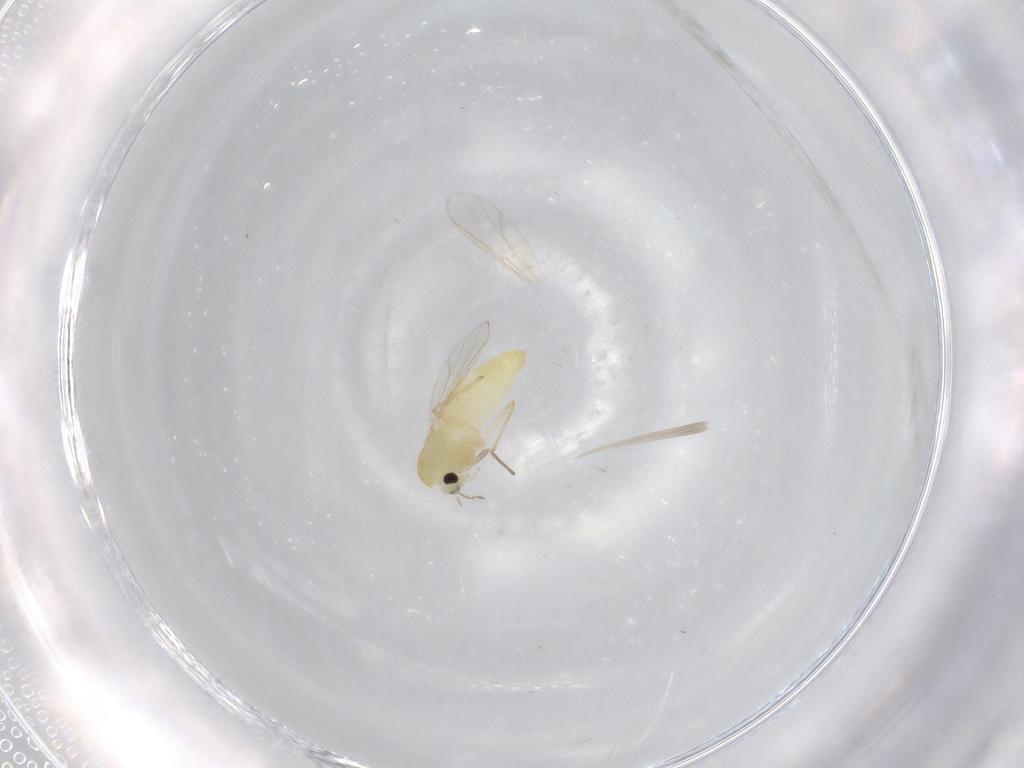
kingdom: Animalia
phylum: Arthropoda
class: Insecta
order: Diptera
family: Chironomidae
